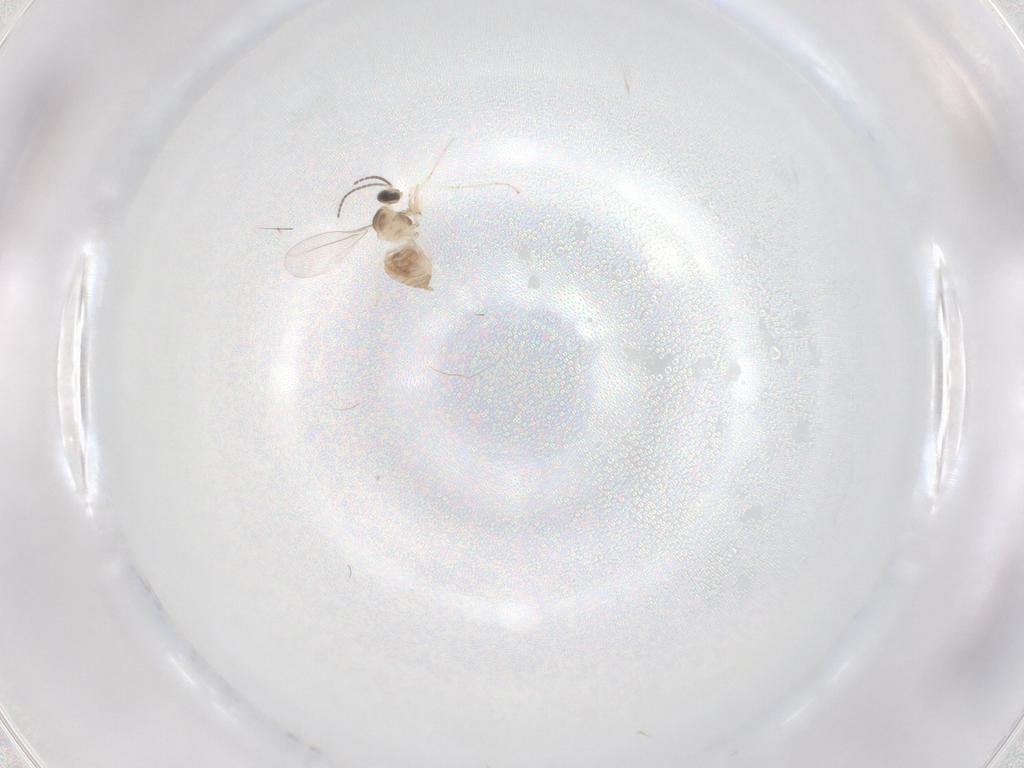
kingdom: Animalia
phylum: Arthropoda
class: Insecta
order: Diptera
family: Cecidomyiidae
